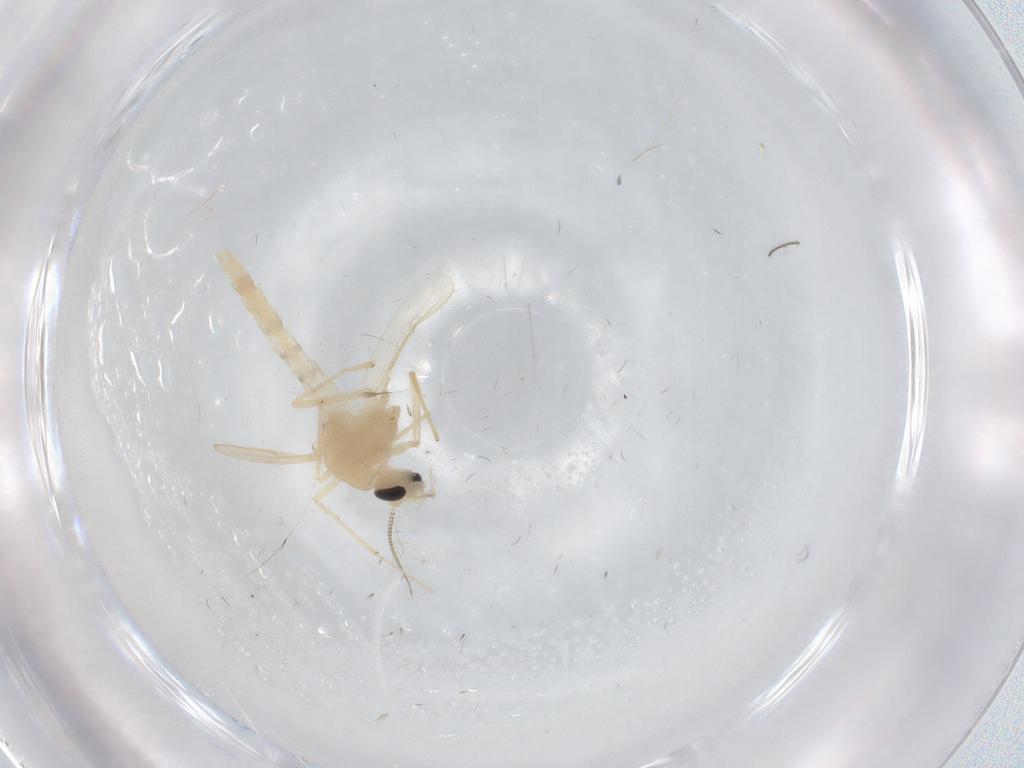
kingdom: Animalia
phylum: Arthropoda
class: Insecta
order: Diptera
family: Chironomidae
